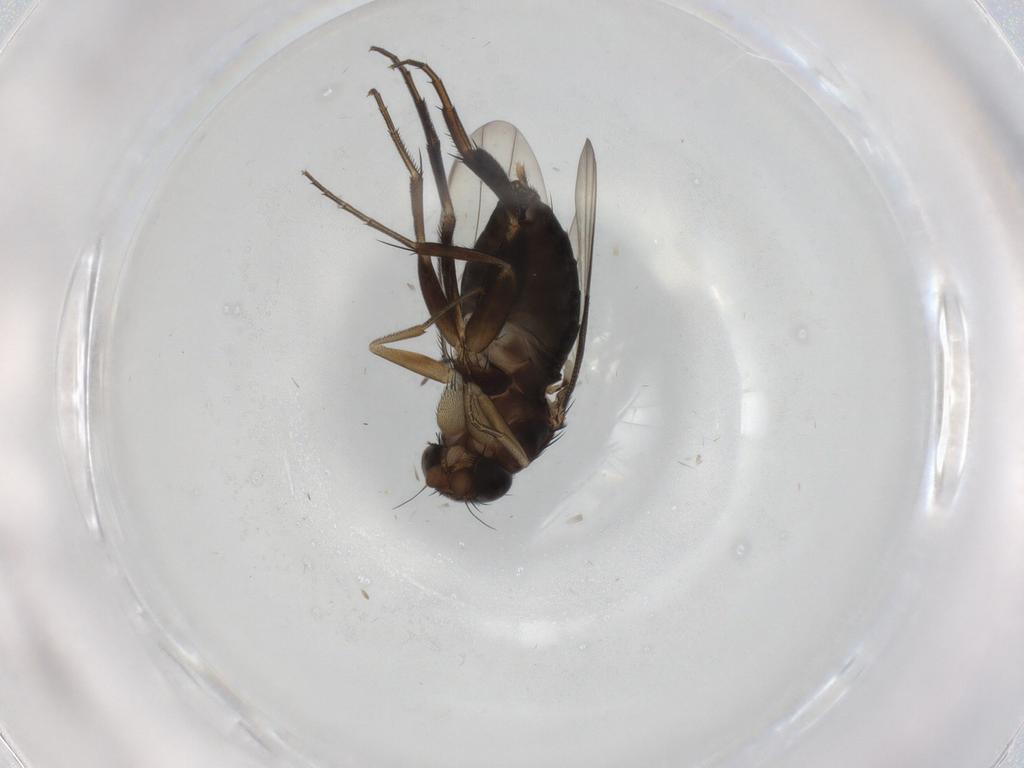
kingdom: Animalia
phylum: Arthropoda
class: Insecta
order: Diptera
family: Phoridae
